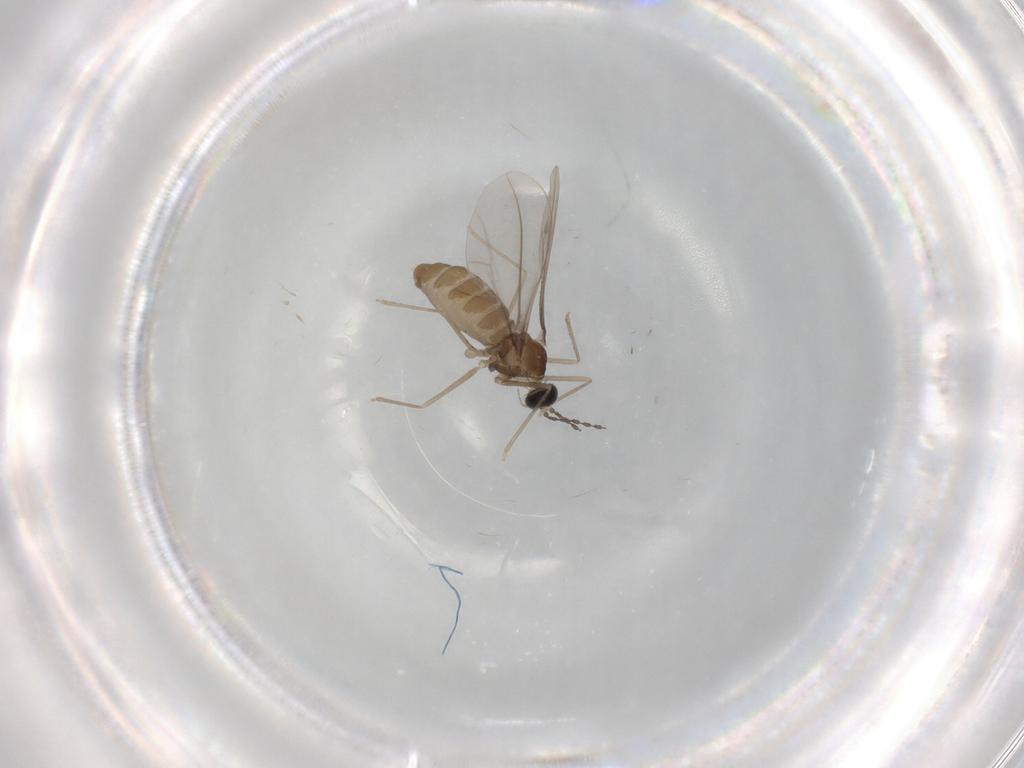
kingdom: Animalia
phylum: Arthropoda
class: Insecta
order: Diptera
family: Cecidomyiidae
